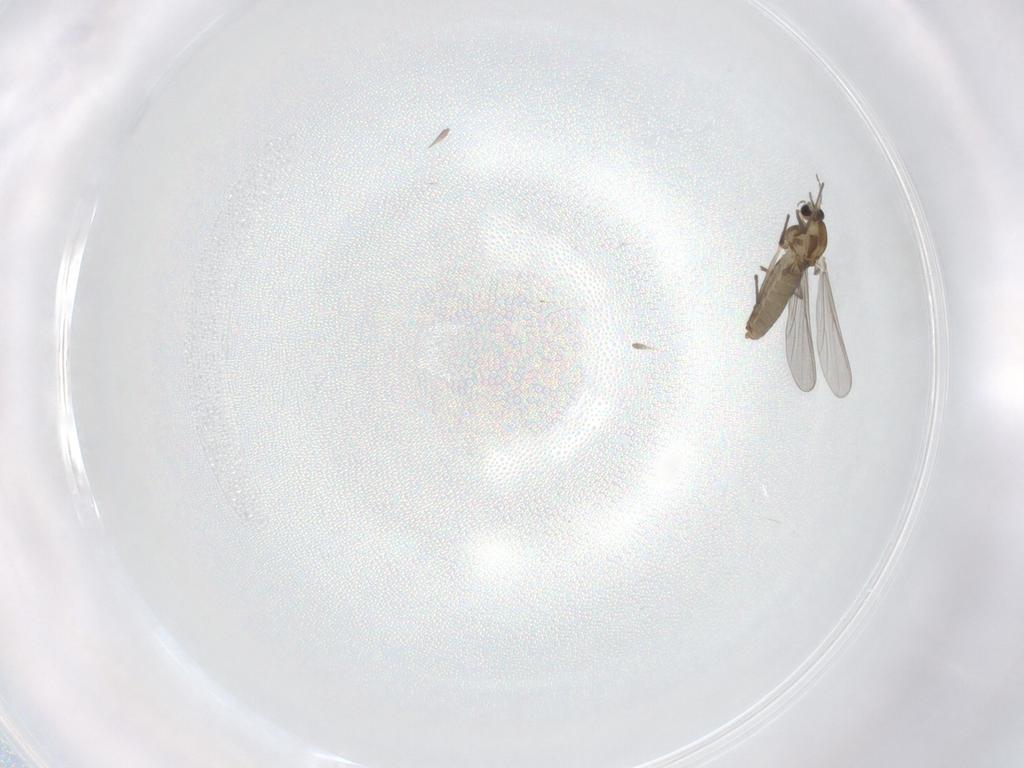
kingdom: Animalia
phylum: Arthropoda
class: Insecta
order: Diptera
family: Chironomidae
